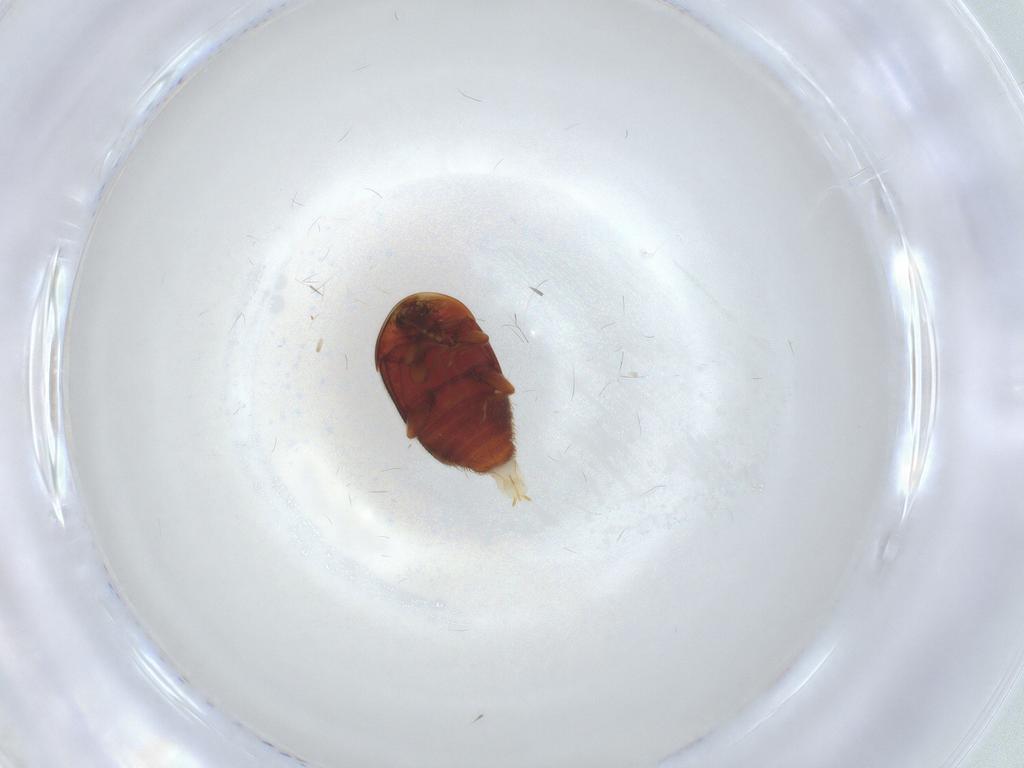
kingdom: Animalia
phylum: Arthropoda
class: Insecta
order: Coleoptera
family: Corylophidae
